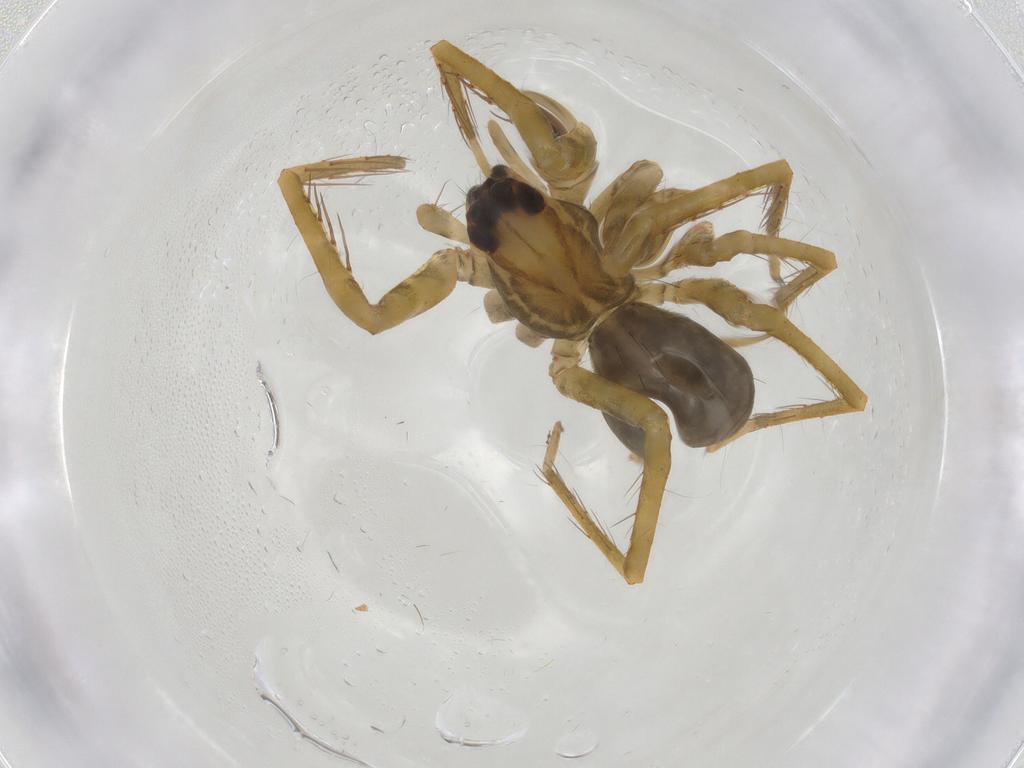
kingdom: Animalia
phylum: Arthropoda
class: Arachnida
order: Araneae
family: Ctenidae
